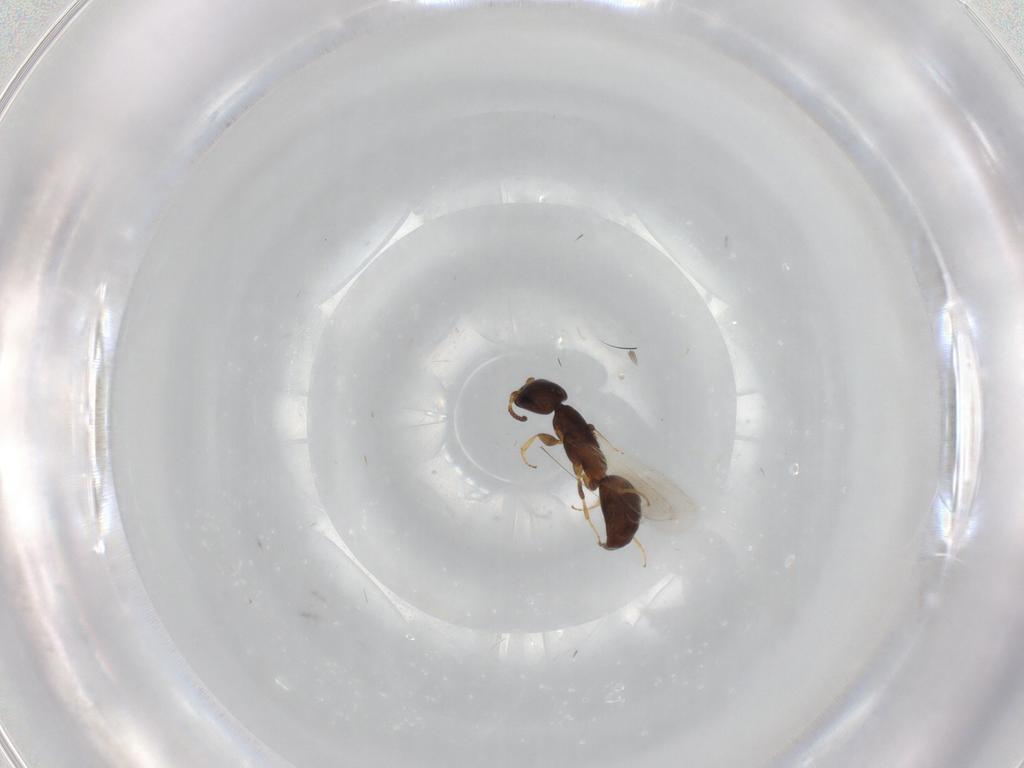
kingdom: Animalia
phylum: Arthropoda
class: Insecta
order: Hymenoptera
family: Bethylidae
